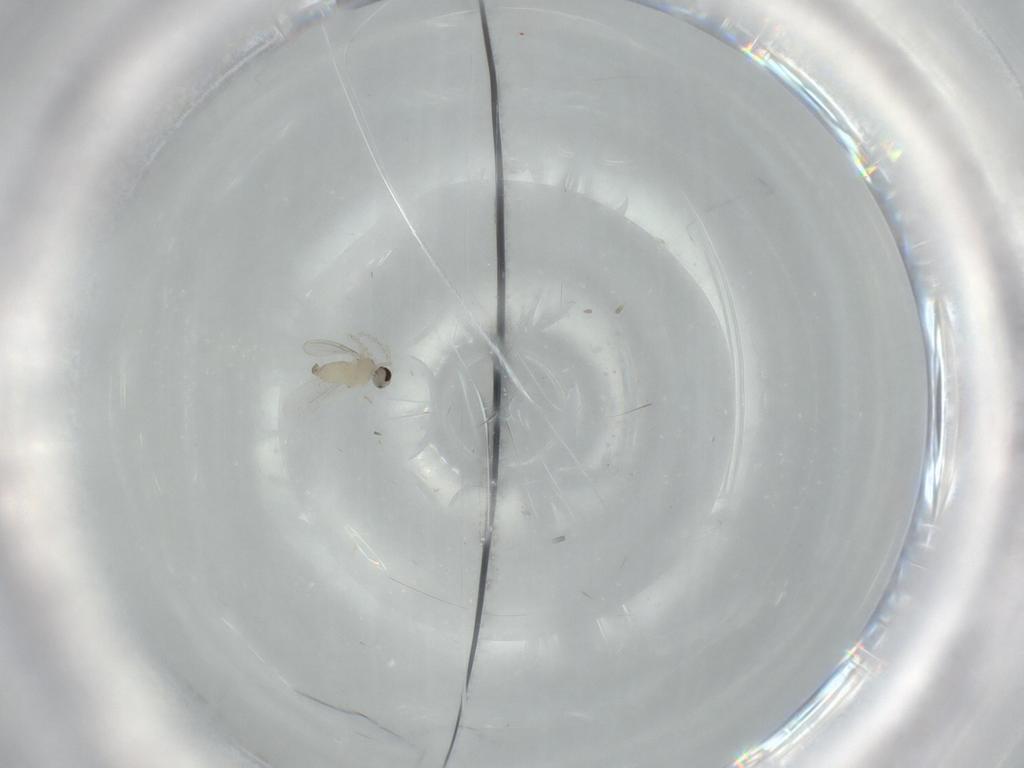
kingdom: Animalia
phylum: Arthropoda
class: Insecta
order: Diptera
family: Cecidomyiidae
